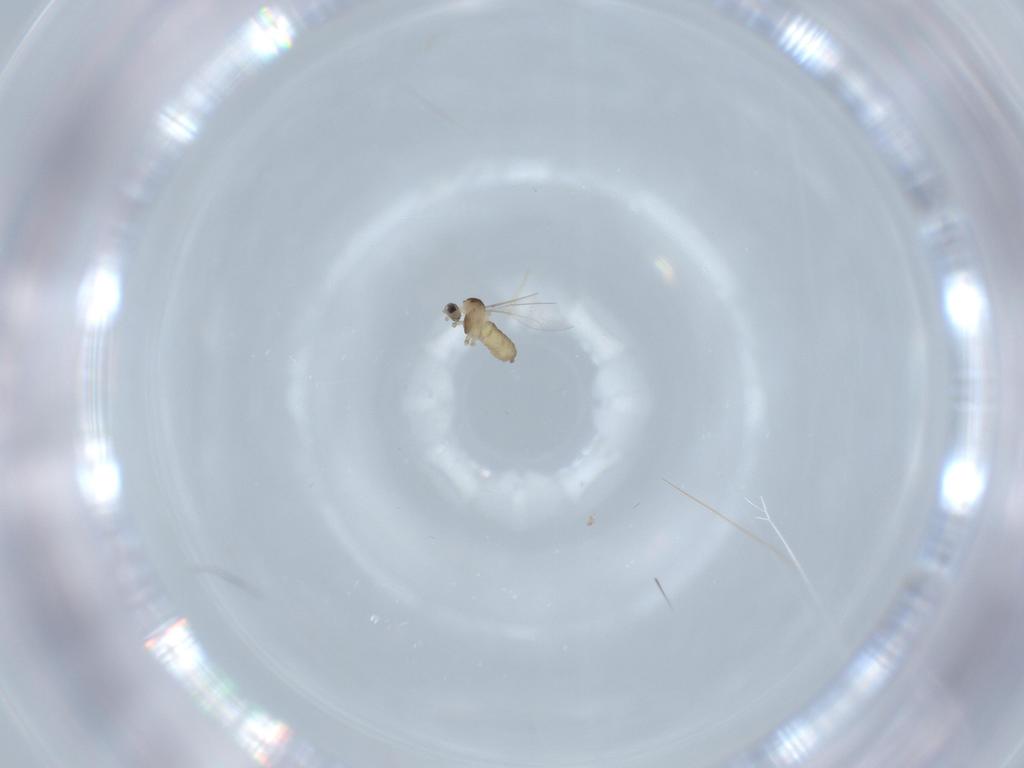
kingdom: Animalia
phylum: Arthropoda
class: Insecta
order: Diptera
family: Cecidomyiidae
